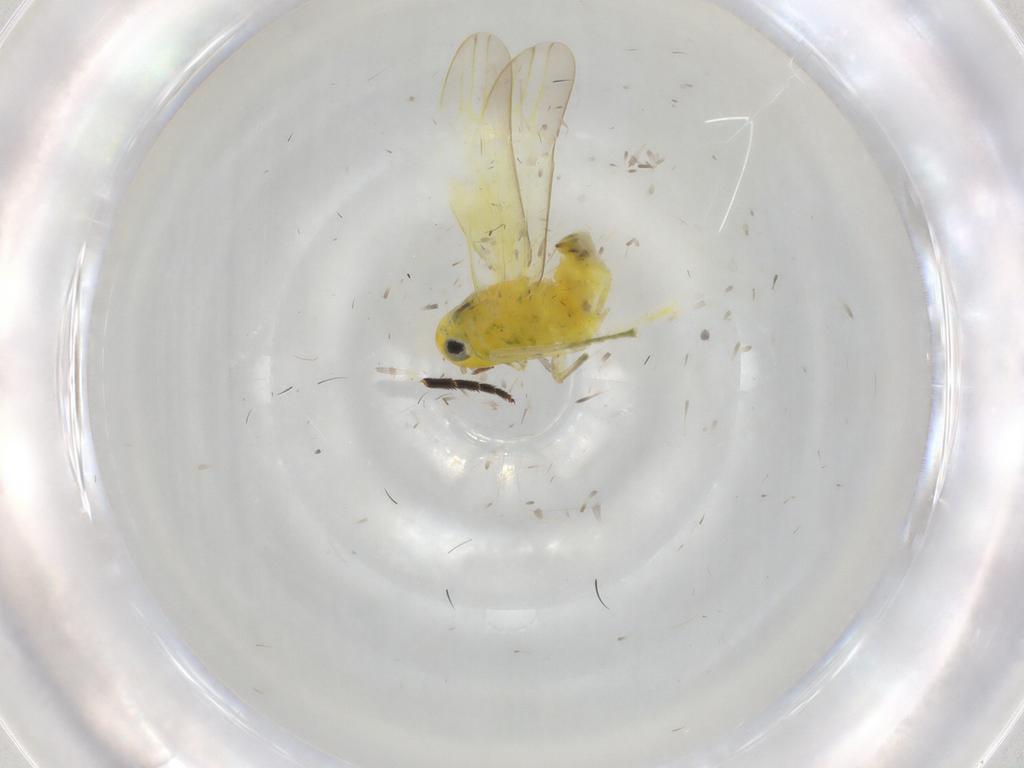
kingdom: Animalia
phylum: Arthropoda
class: Insecta
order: Hemiptera
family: Cicadellidae
